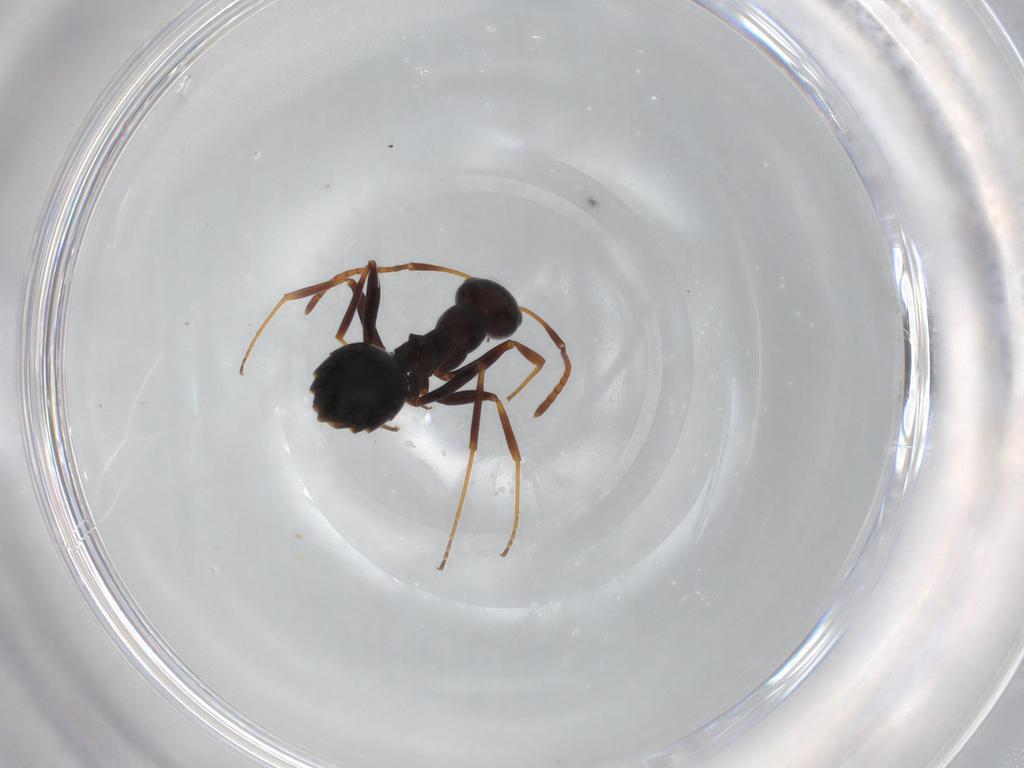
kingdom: Animalia
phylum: Arthropoda
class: Insecta
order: Hymenoptera
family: Formicidae
